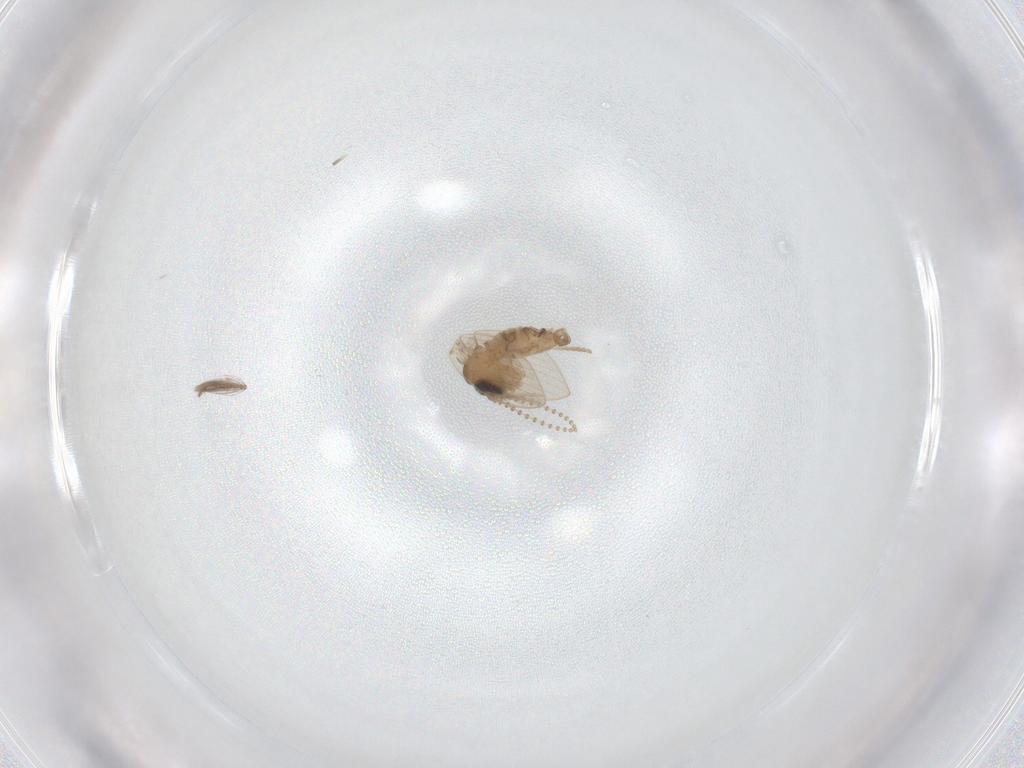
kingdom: Animalia
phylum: Arthropoda
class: Insecta
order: Diptera
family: Psychodidae
